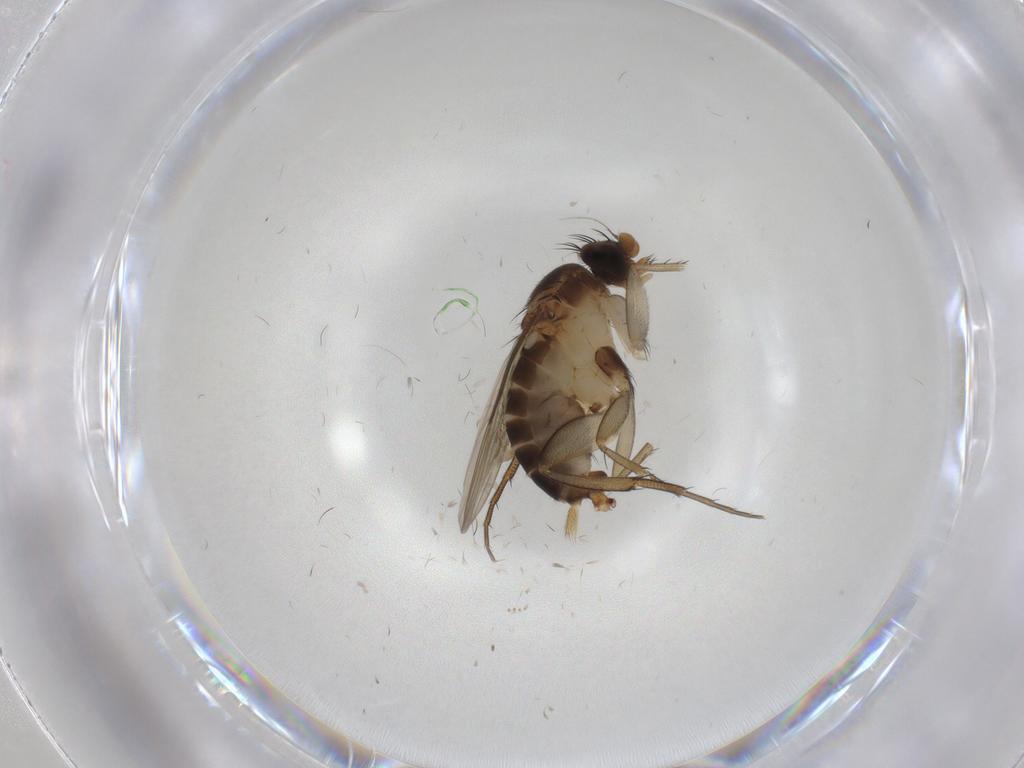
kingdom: Animalia
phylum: Arthropoda
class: Insecta
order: Diptera
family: Phoridae
